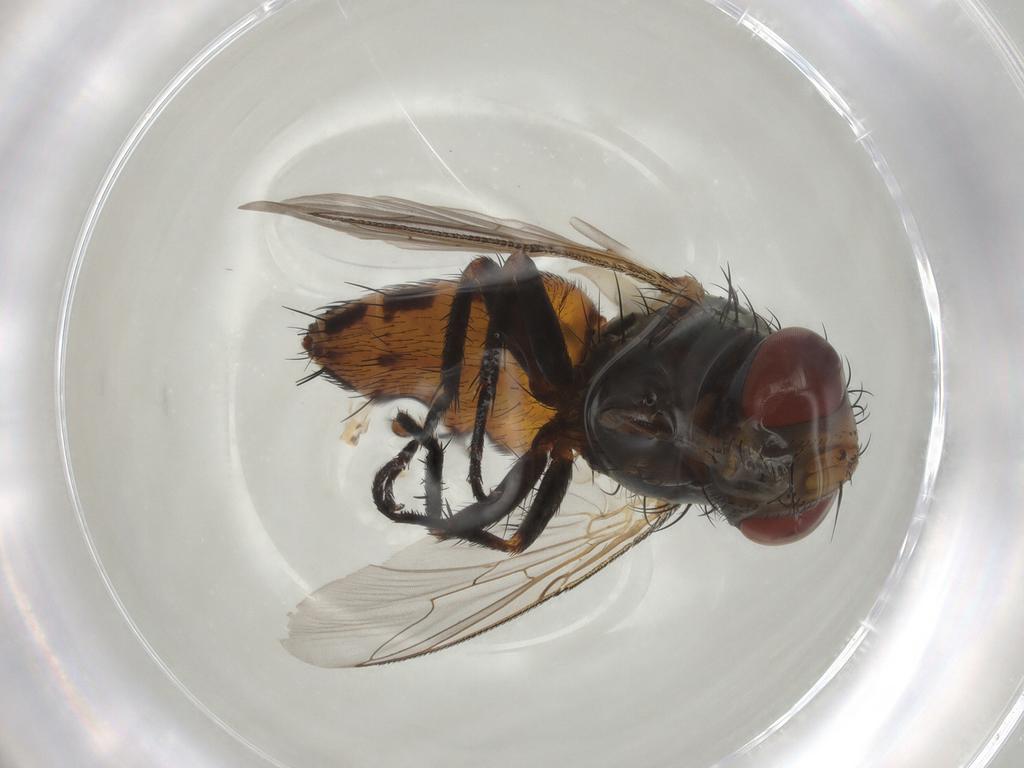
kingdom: Animalia
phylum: Arthropoda
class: Insecta
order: Diptera
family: Sarcophagidae
